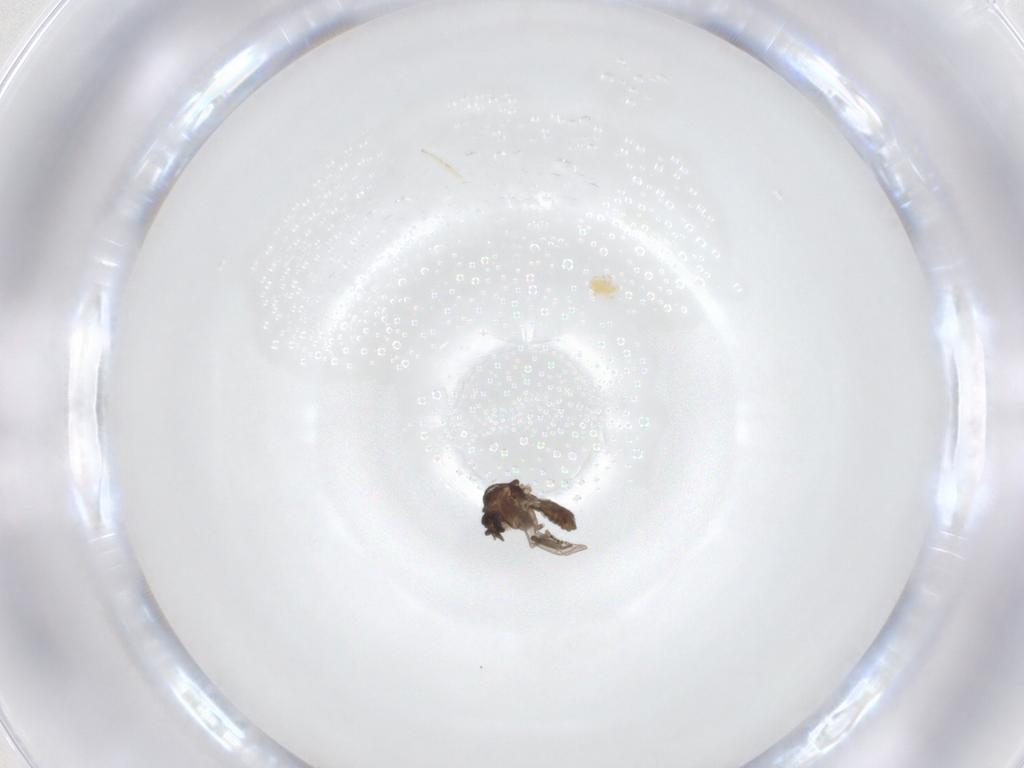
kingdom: Animalia
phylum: Arthropoda
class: Insecta
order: Diptera
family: Ceratopogonidae
